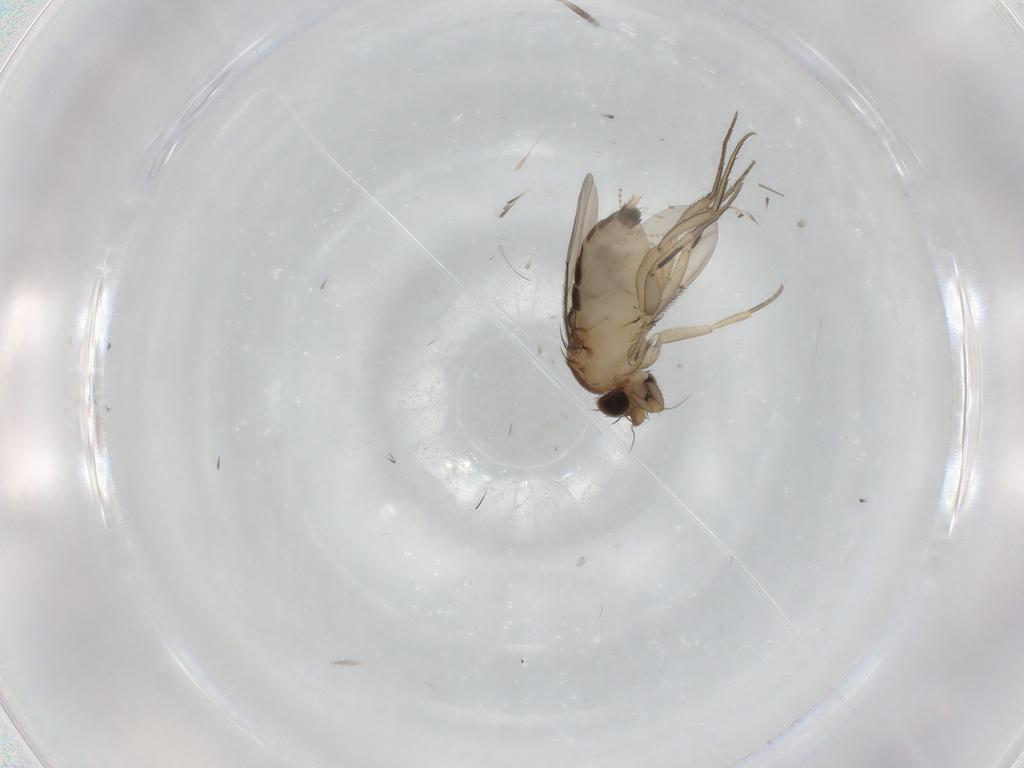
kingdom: Animalia
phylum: Arthropoda
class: Insecta
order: Diptera
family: Phoridae
